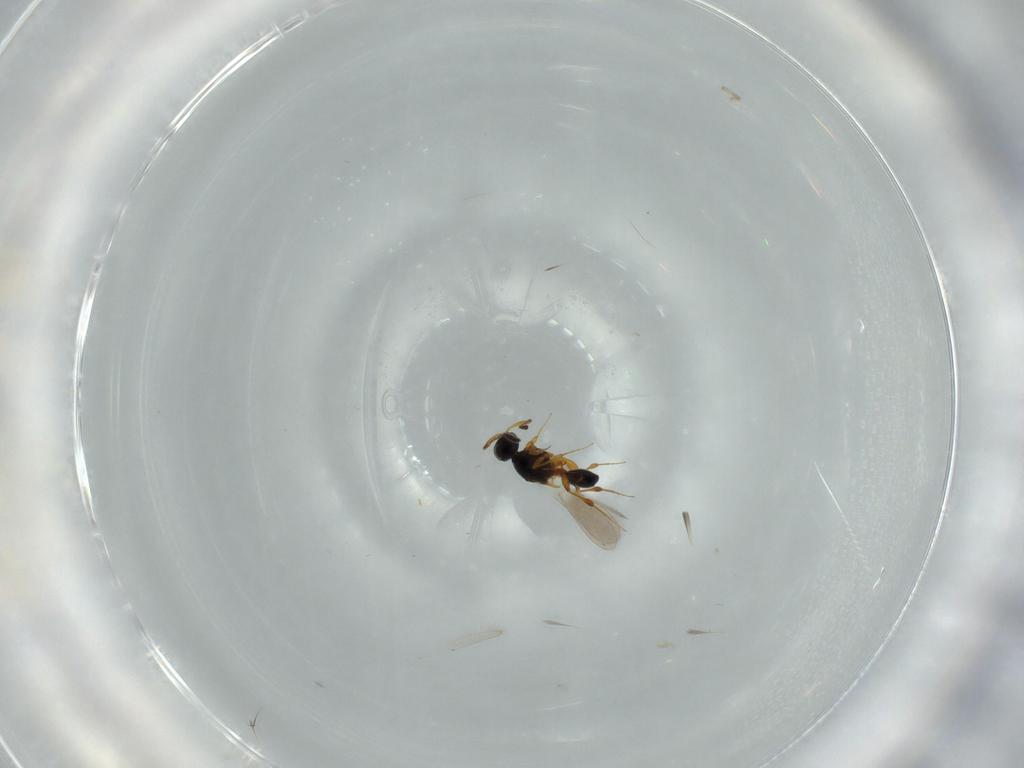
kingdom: Animalia
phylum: Arthropoda
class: Insecta
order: Hymenoptera
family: Platygastridae
